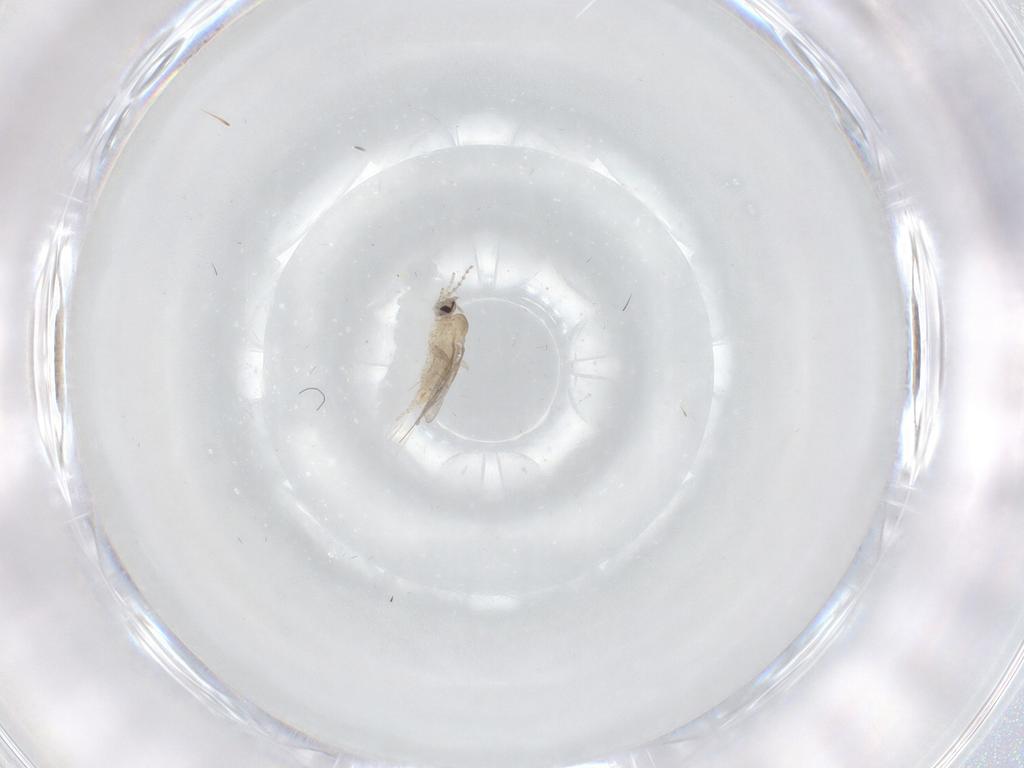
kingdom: Animalia
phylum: Arthropoda
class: Insecta
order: Diptera
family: Cecidomyiidae
